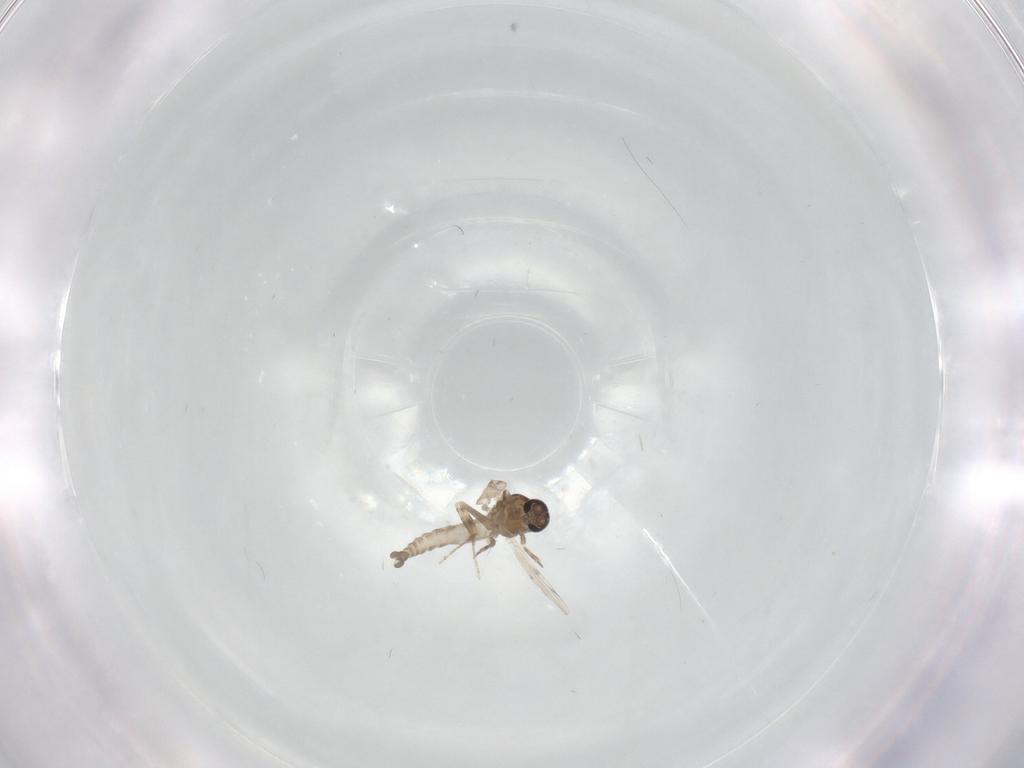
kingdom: Animalia
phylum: Arthropoda
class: Insecta
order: Diptera
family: Ceratopogonidae
